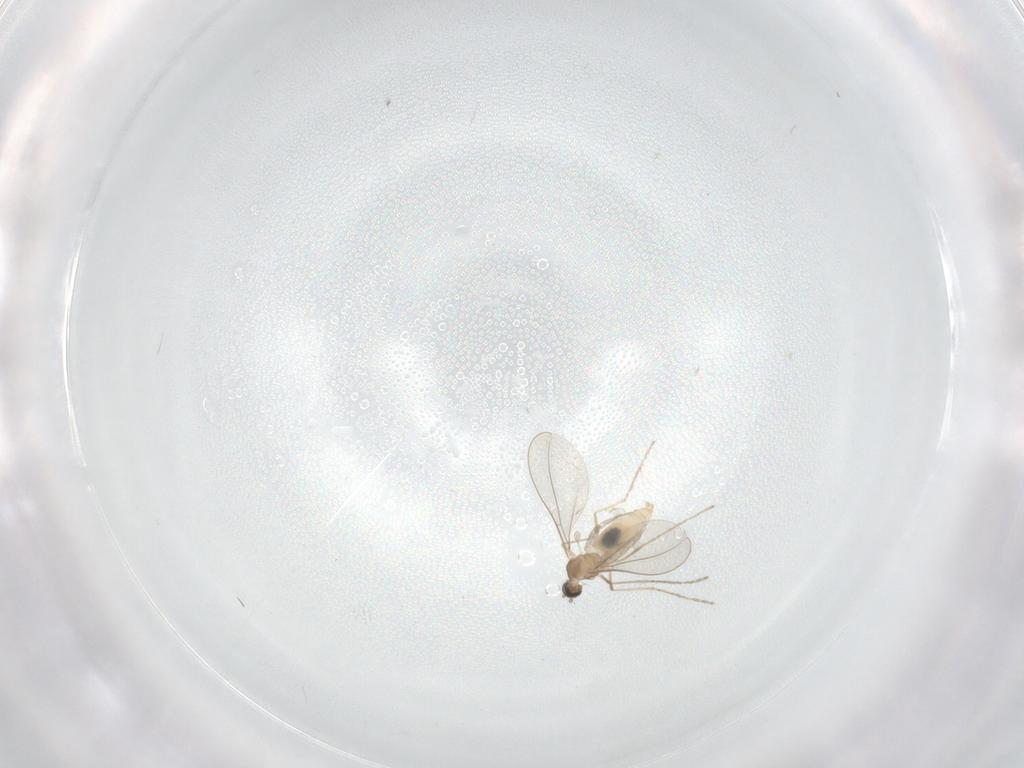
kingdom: Animalia
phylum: Arthropoda
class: Insecta
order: Diptera
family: Cecidomyiidae
